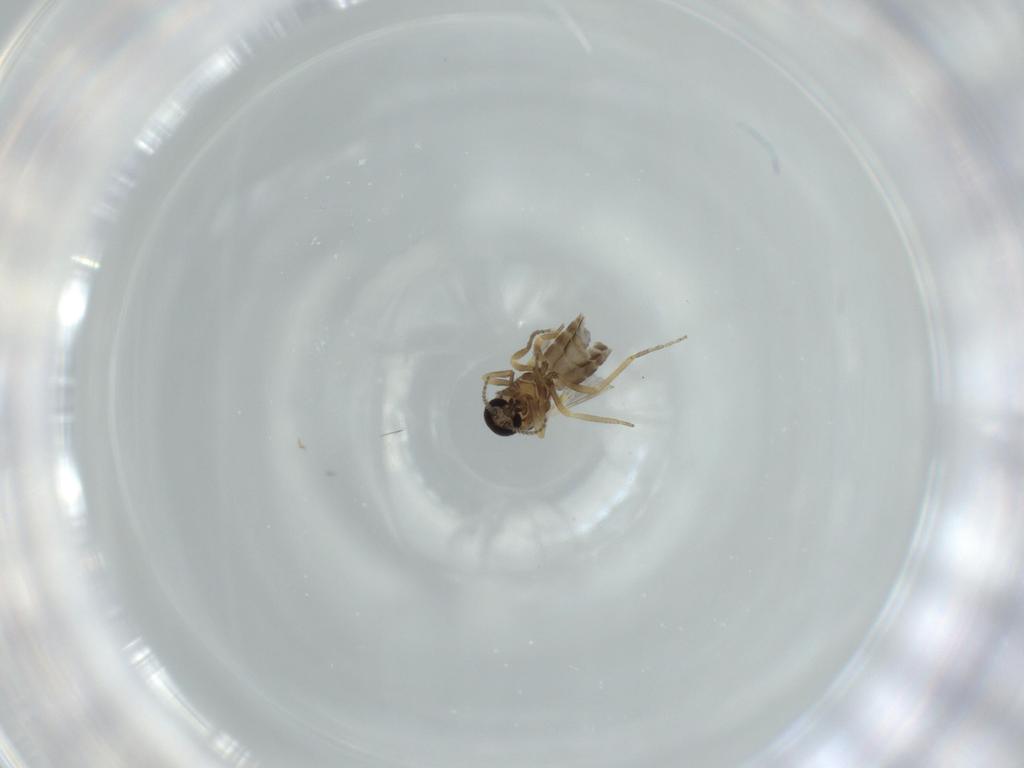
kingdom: Animalia
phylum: Arthropoda
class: Insecta
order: Diptera
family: Ceratopogonidae
